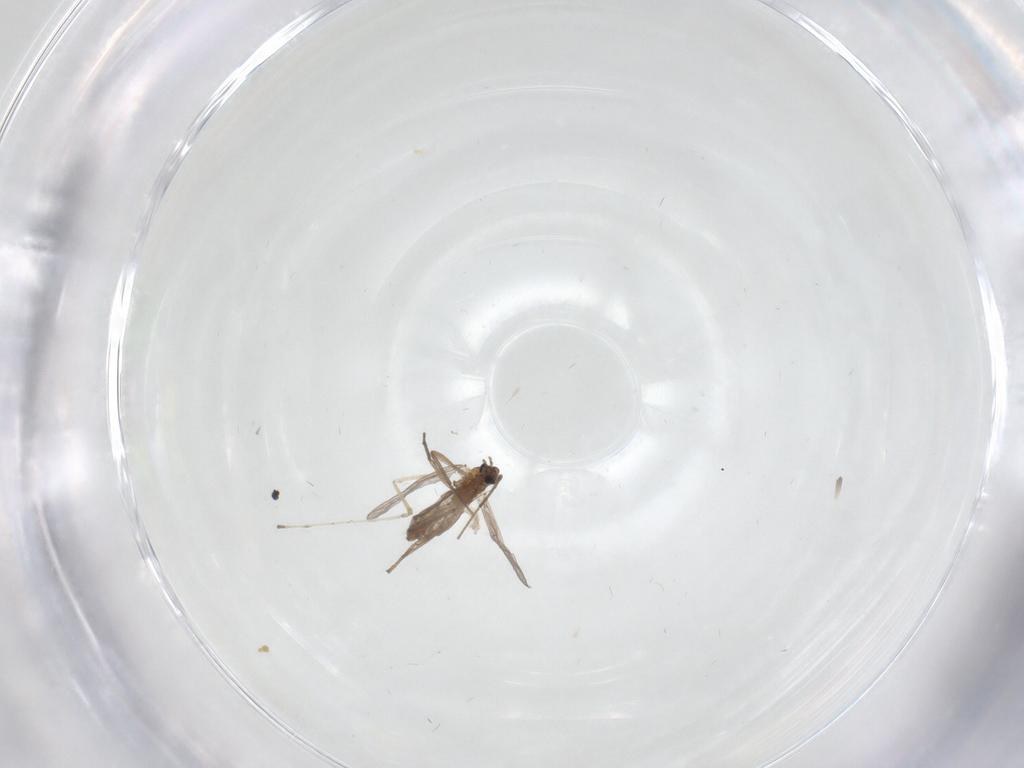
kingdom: Animalia
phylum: Arthropoda
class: Insecta
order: Diptera
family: Chironomidae
